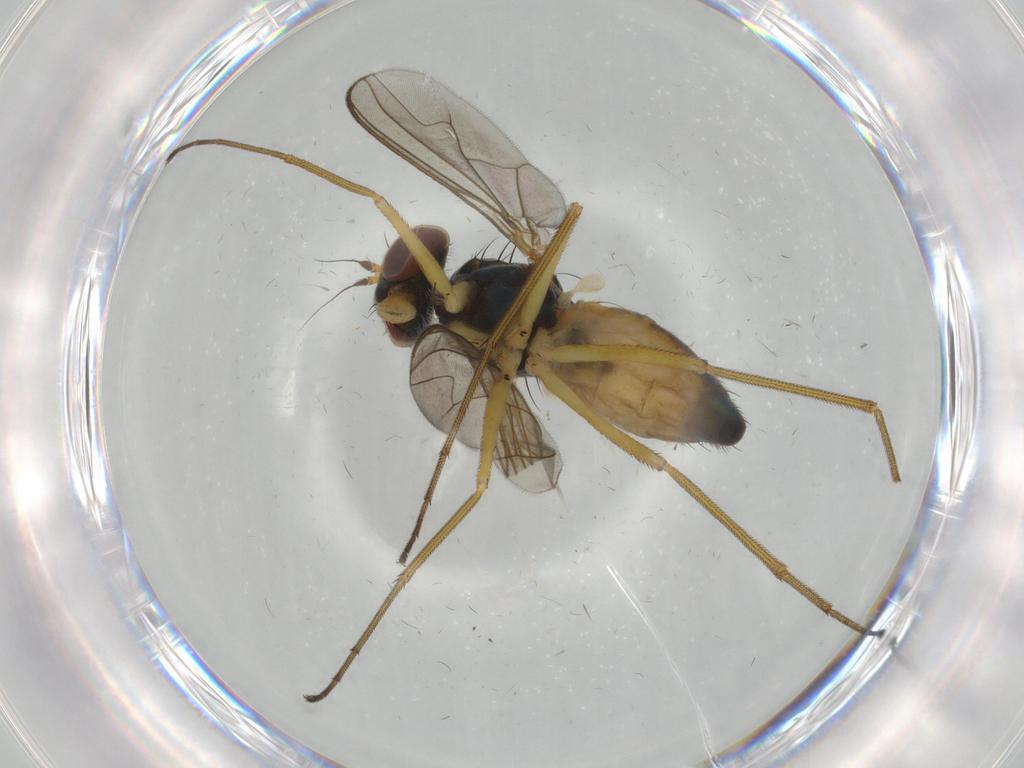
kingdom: Animalia
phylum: Arthropoda
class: Insecta
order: Diptera
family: Dolichopodidae
